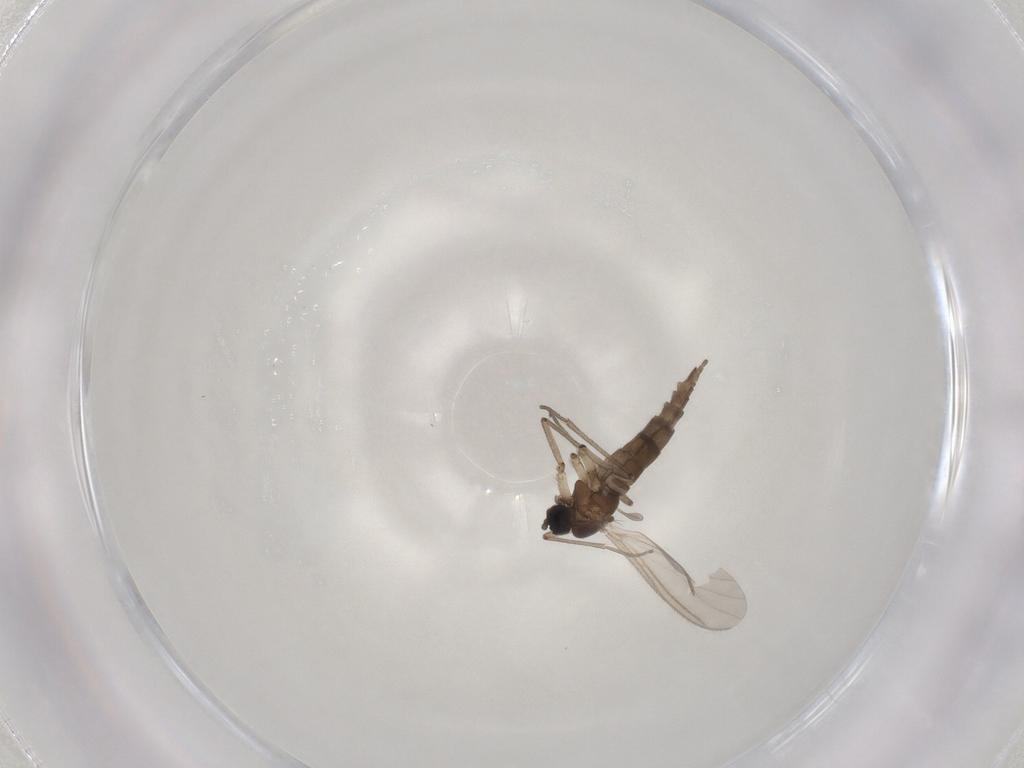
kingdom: Animalia
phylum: Arthropoda
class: Insecta
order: Diptera
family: Sciaridae
